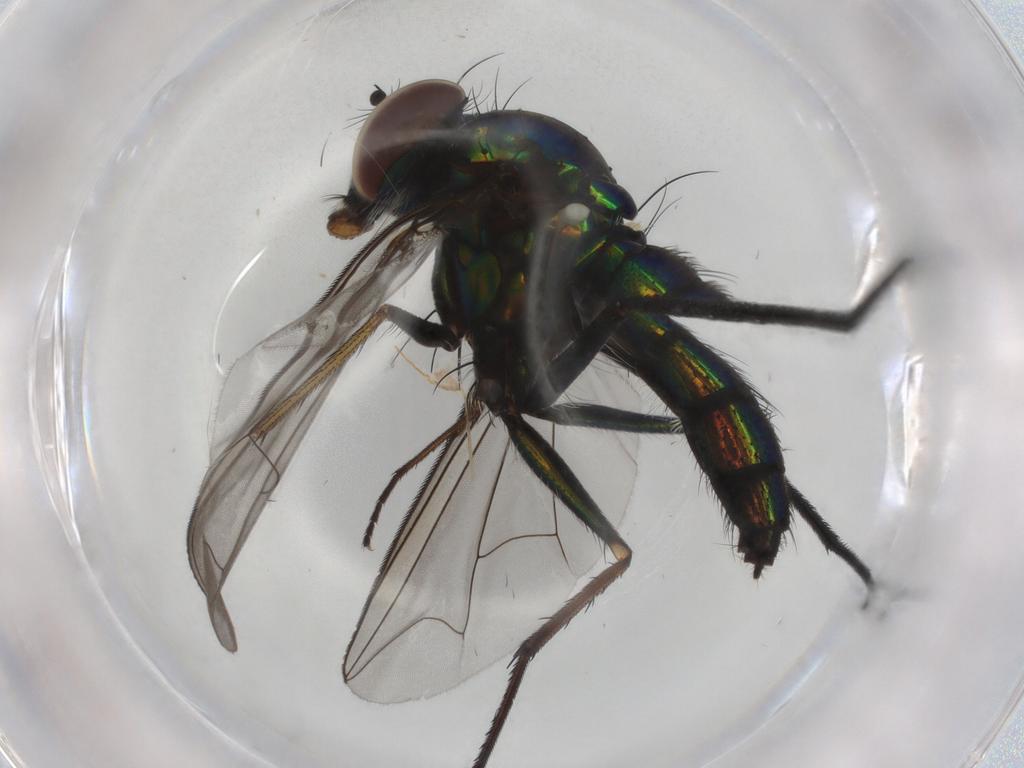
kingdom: Animalia
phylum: Arthropoda
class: Insecta
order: Diptera
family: Dolichopodidae
